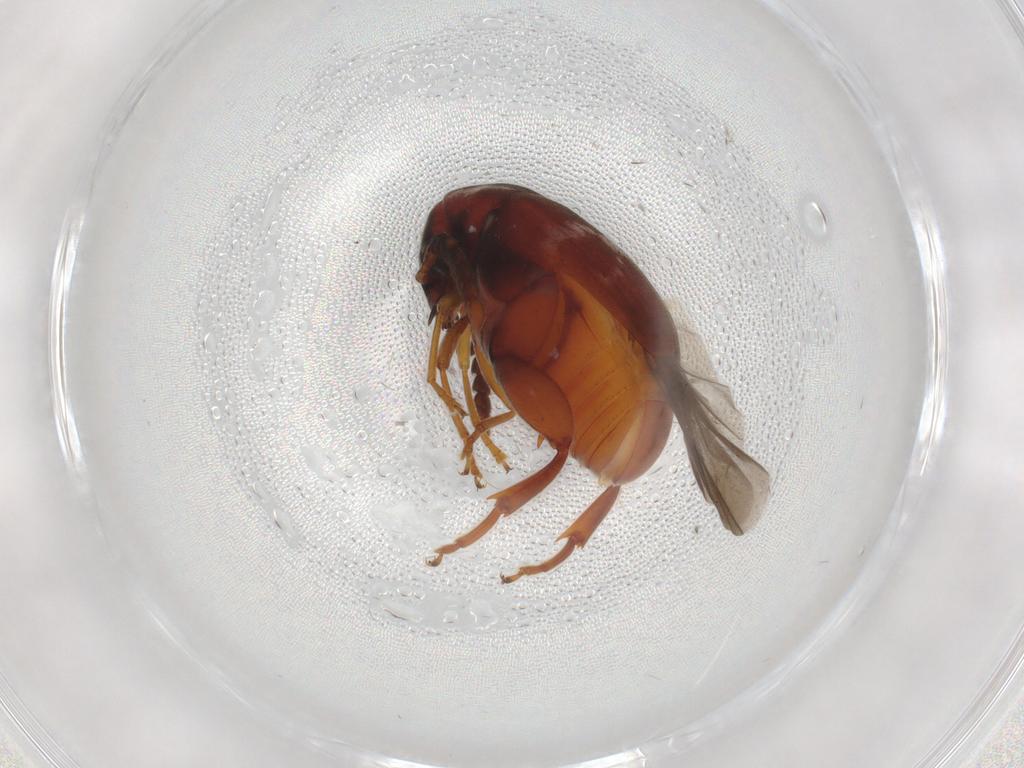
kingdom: Animalia
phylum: Arthropoda
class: Insecta
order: Coleoptera
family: Chrysomelidae
